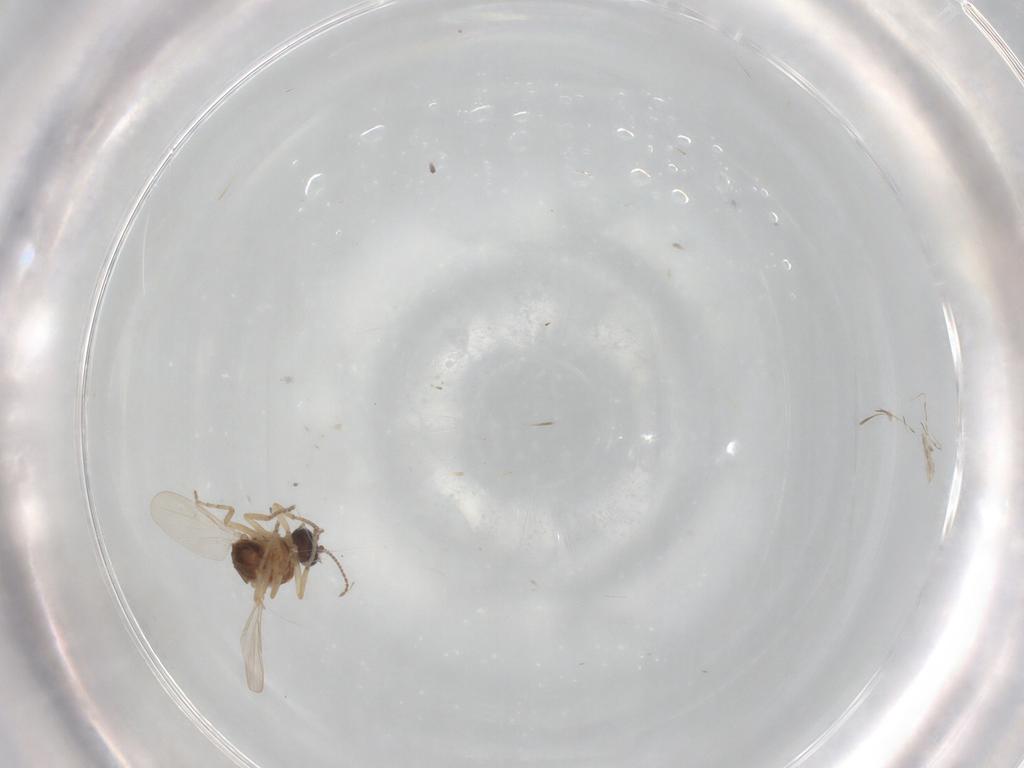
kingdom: Animalia
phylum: Arthropoda
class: Insecta
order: Diptera
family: Ceratopogonidae
